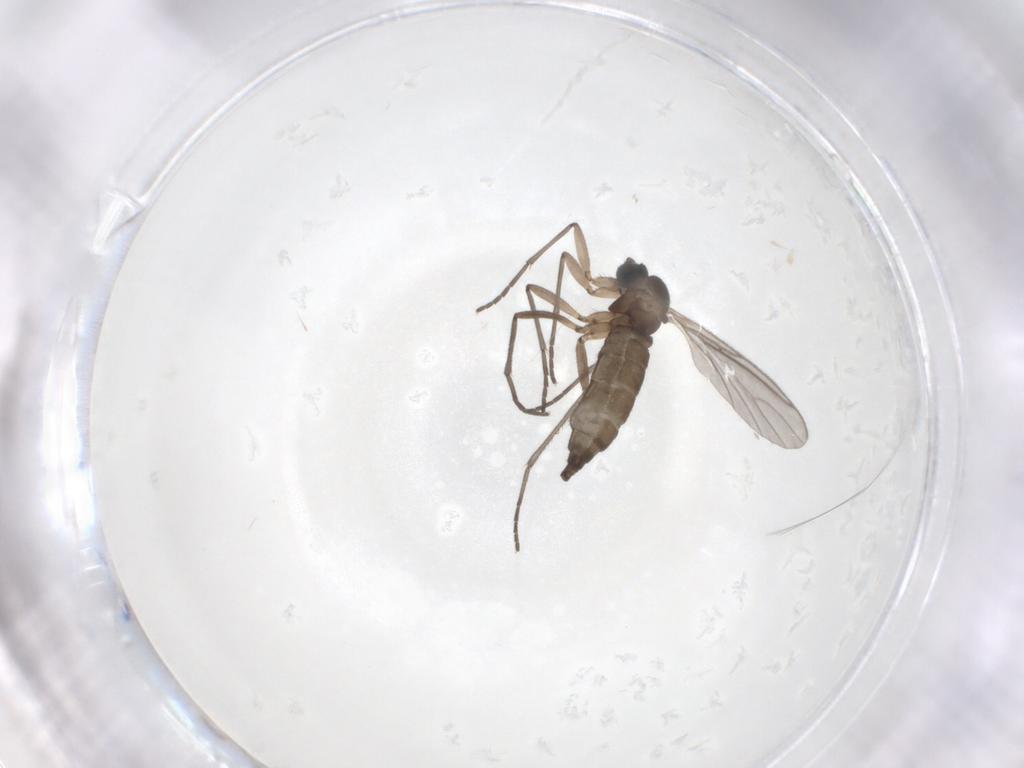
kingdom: Animalia
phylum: Arthropoda
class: Insecta
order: Diptera
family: Sciaridae
